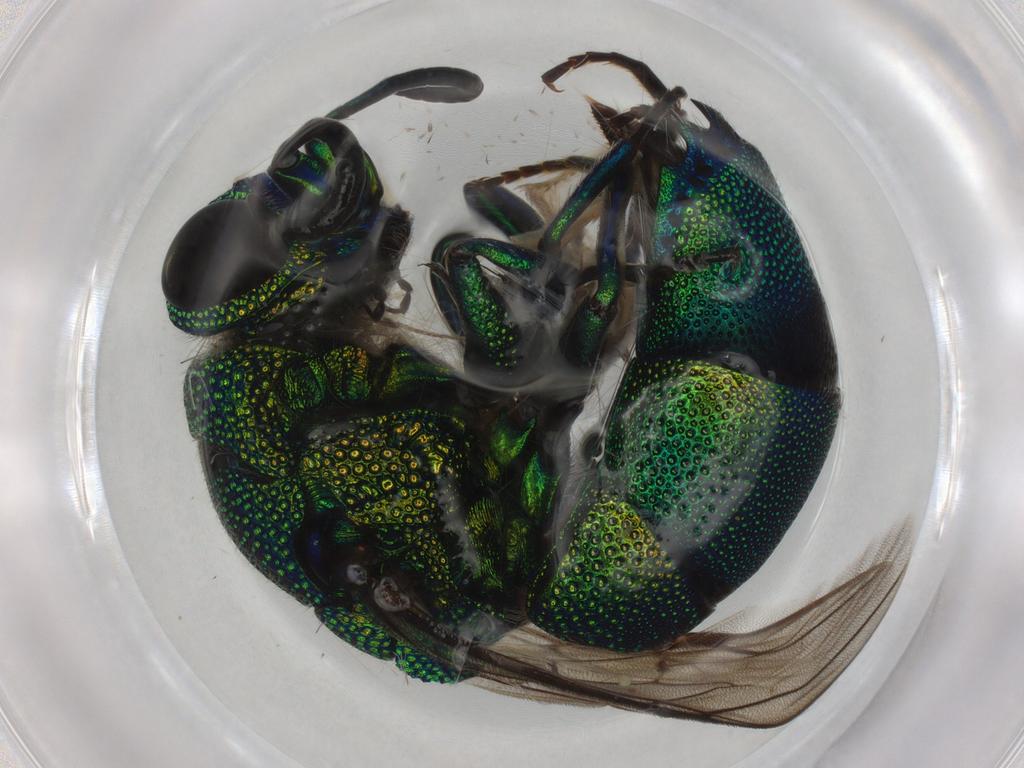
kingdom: Animalia
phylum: Arthropoda
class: Insecta
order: Hymenoptera
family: Chrysididae
